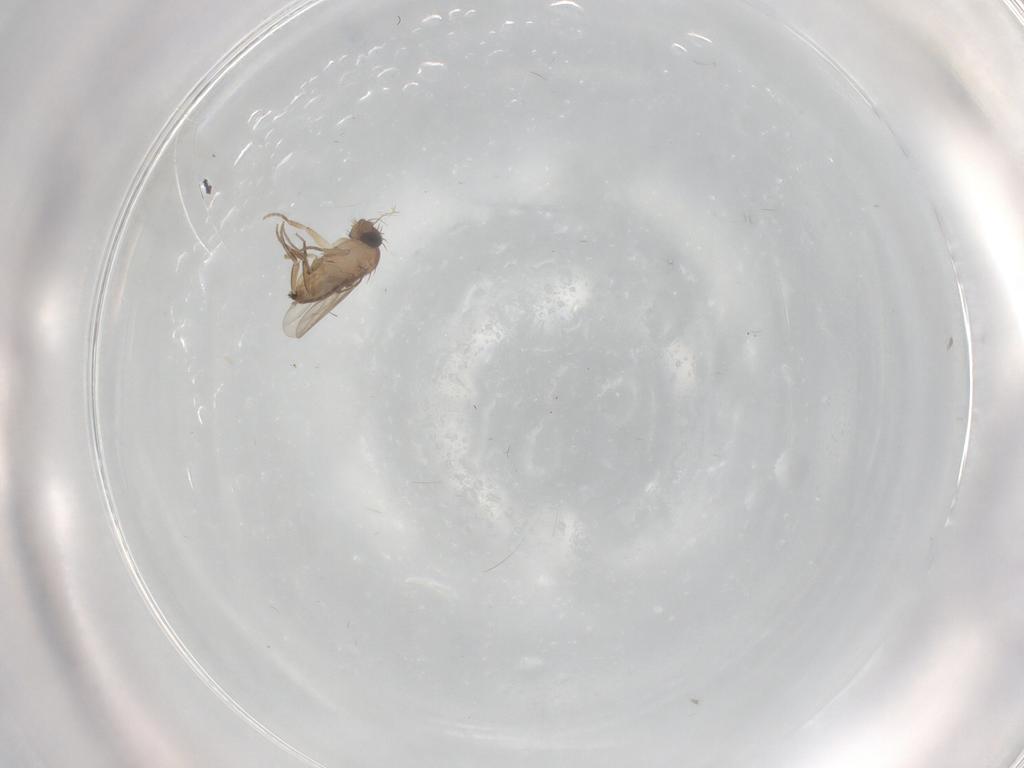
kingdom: Animalia
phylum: Arthropoda
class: Insecta
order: Diptera
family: Phoridae
